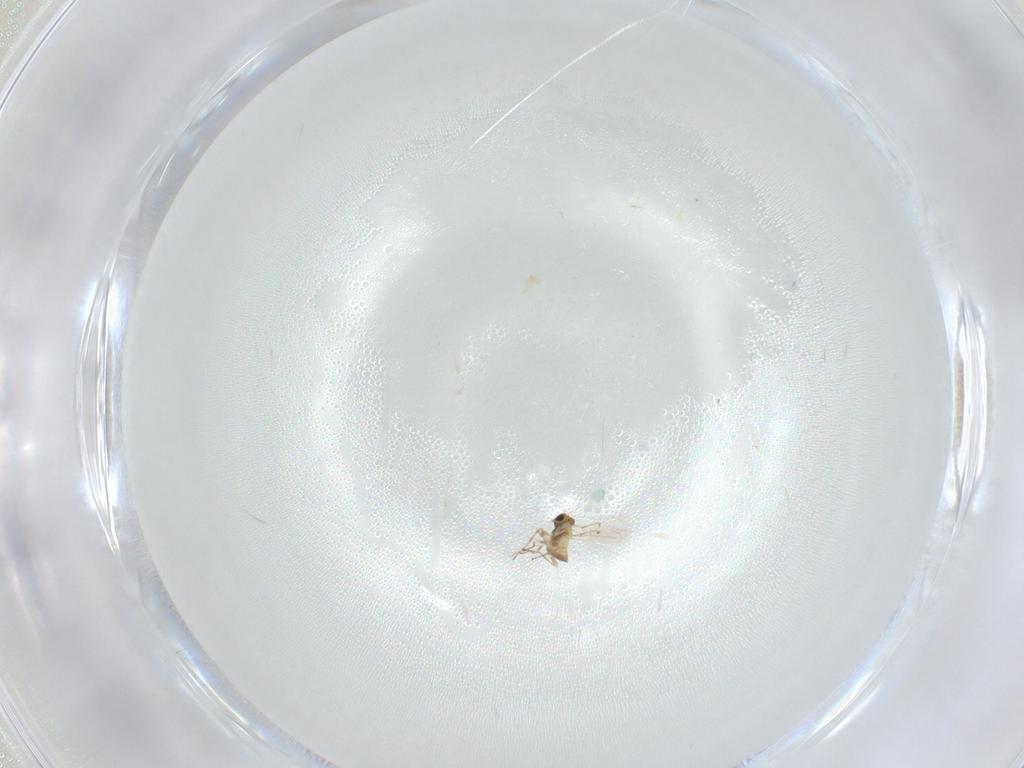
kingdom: Animalia
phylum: Arthropoda
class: Insecta
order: Hymenoptera
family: Trichogrammatidae
